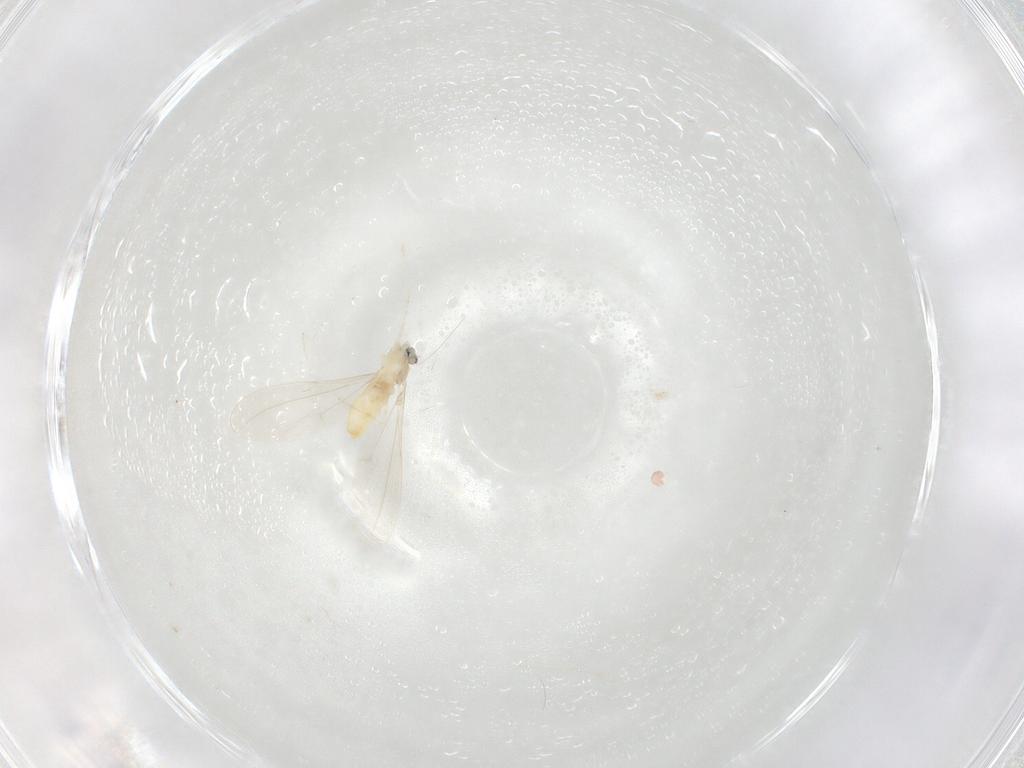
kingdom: Animalia
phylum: Arthropoda
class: Insecta
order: Diptera
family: Cecidomyiidae
